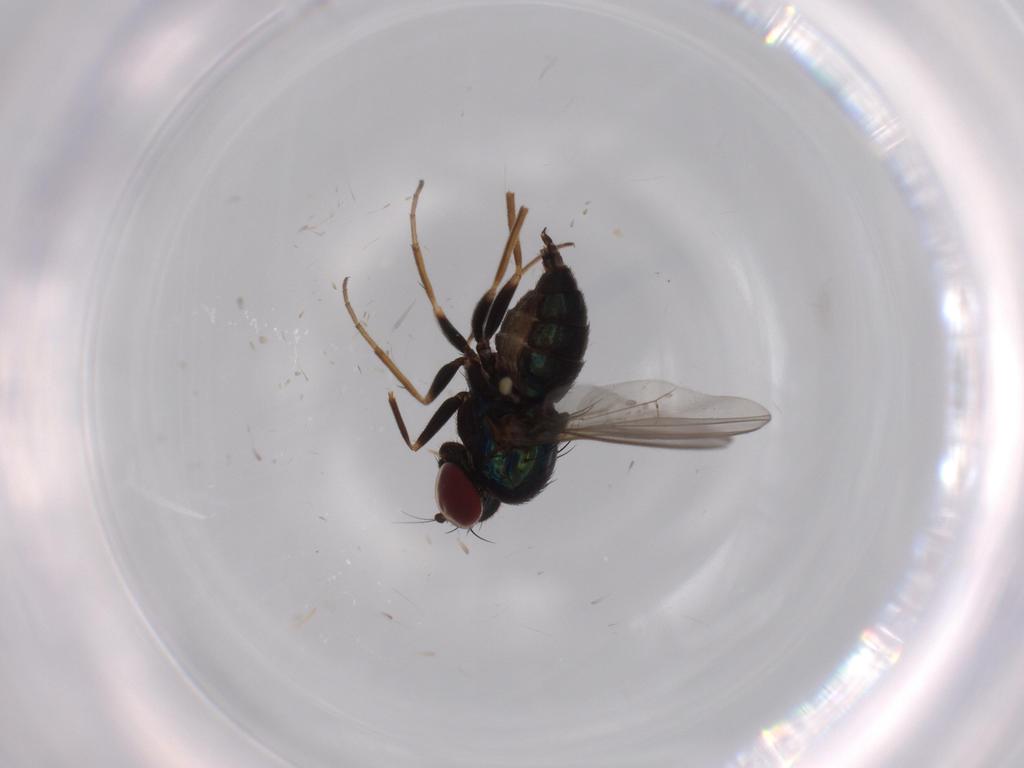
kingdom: Animalia
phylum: Arthropoda
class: Insecta
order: Diptera
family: Dolichopodidae
